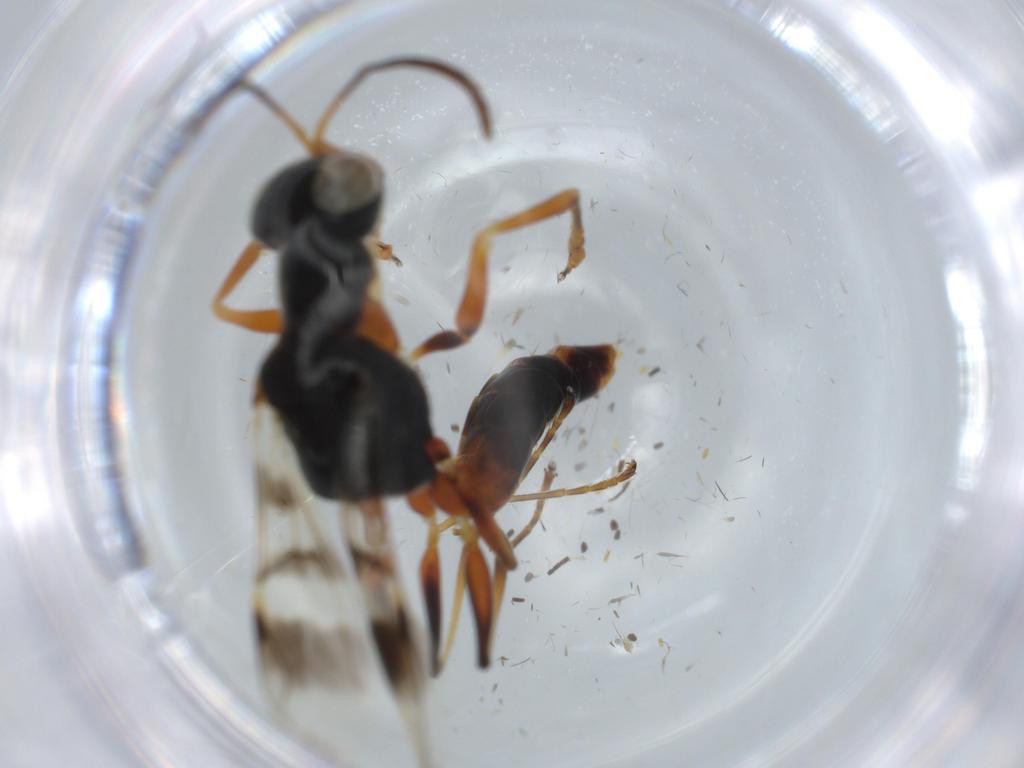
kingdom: Animalia
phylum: Arthropoda
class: Insecta
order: Hymenoptera
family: Dryinidae
